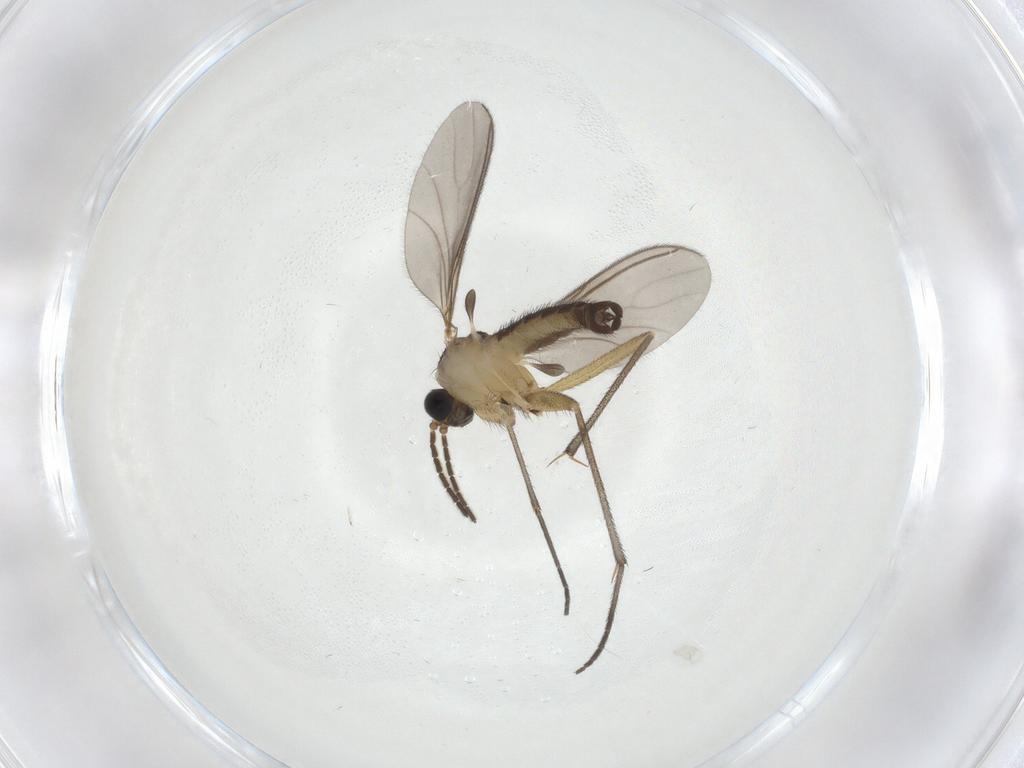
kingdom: Animalia
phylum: Arthropoda
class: Insecta
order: Diptera
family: Sciaridae
